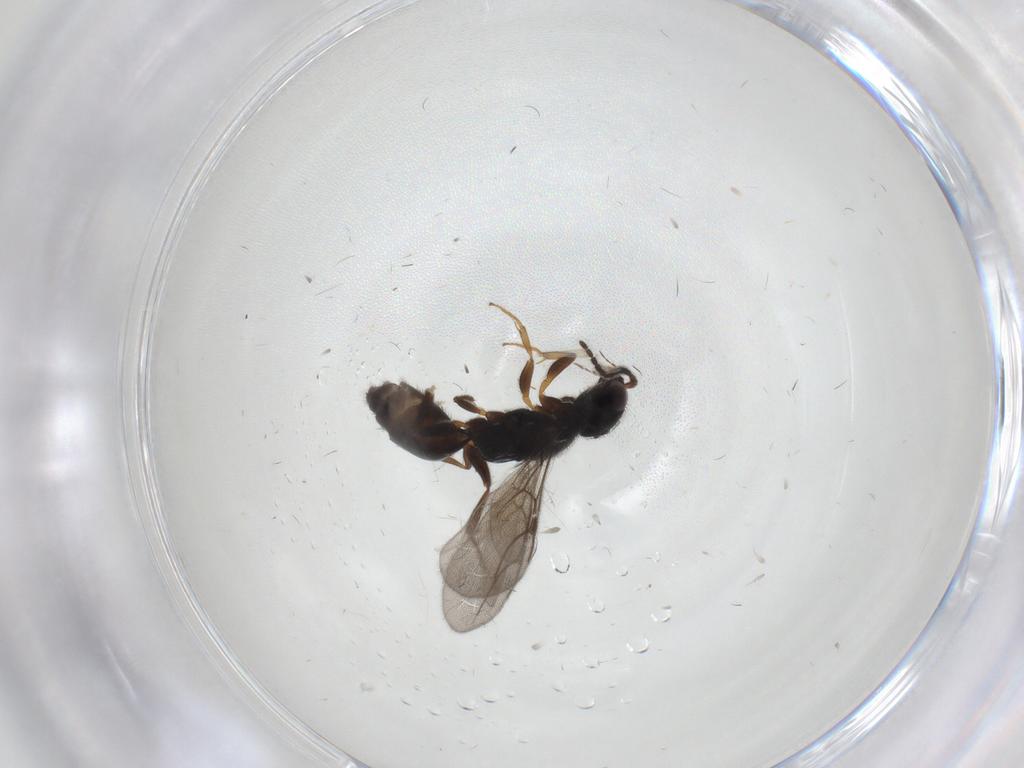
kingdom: Animalia
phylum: Arthropoda
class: Insecta
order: Hymenoptera
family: Bethylidae
